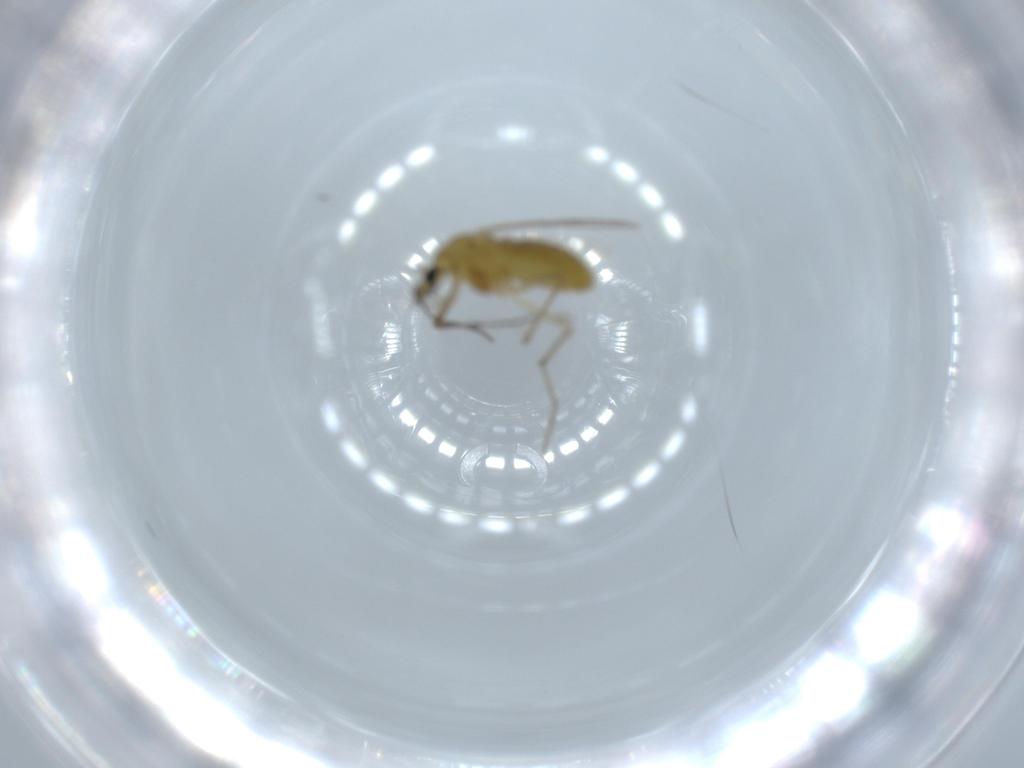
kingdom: Animalia
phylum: Arthropoda
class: Insecta
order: Diptera
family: Chironomidae
